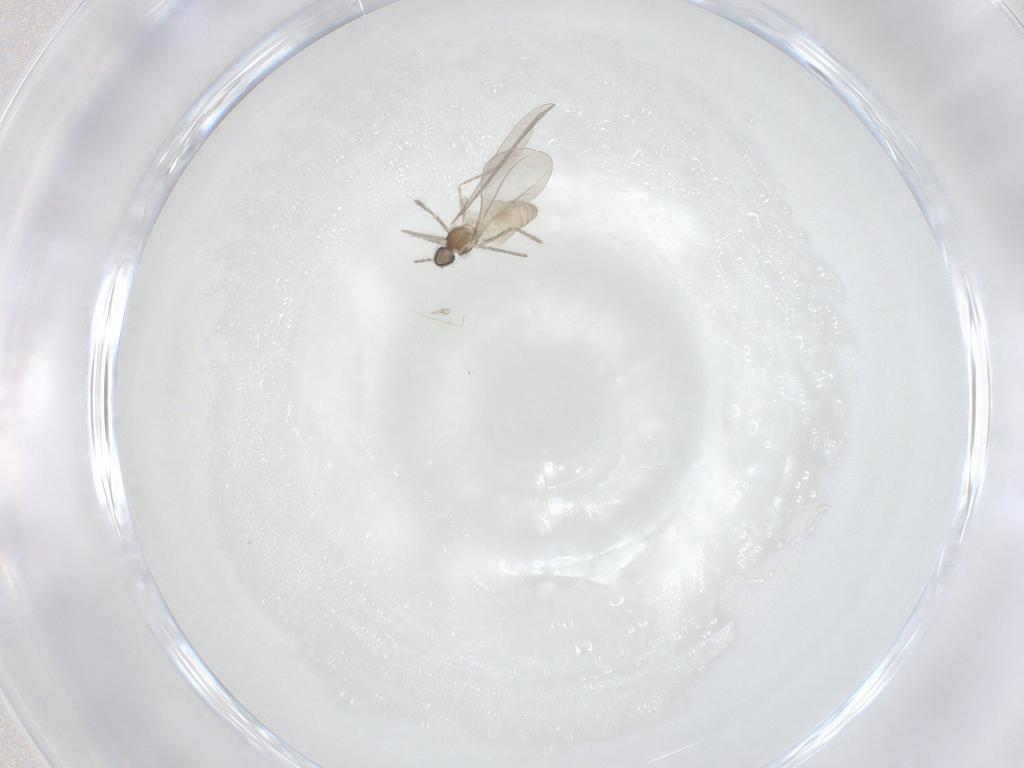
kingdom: Animalia
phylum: Arthropoda
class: Insecta
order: Diptera
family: Cecidomyiidae
